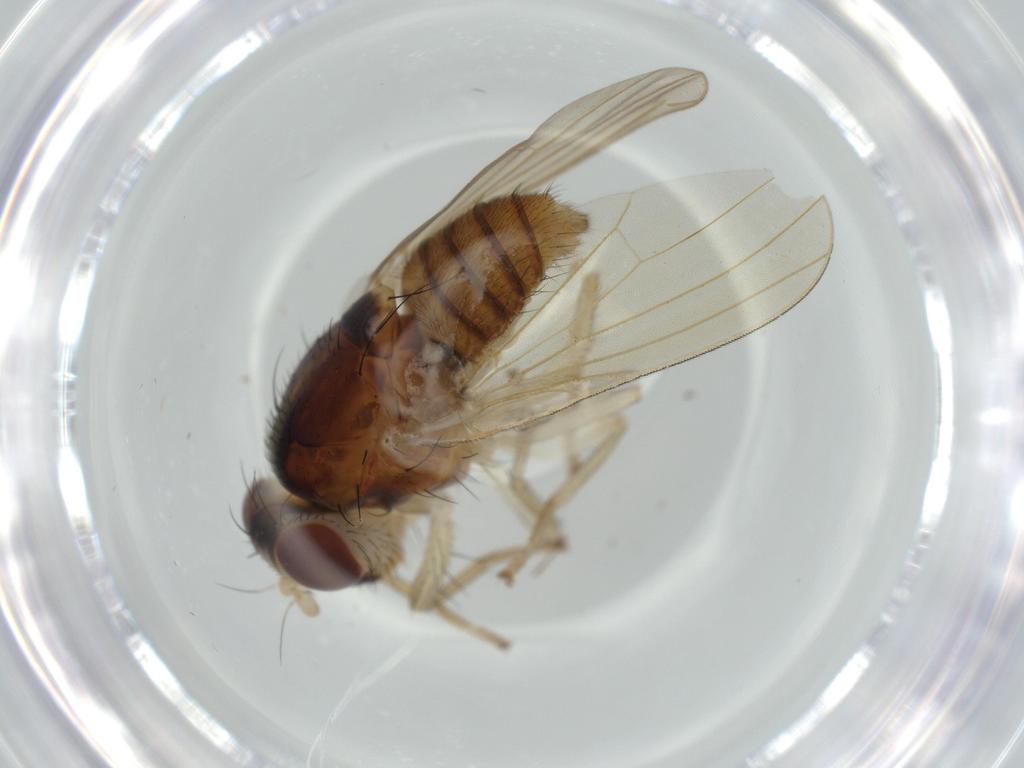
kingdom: Animalia
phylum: Arthropoda
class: Insecta
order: Diptera
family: Lauxaniidae
